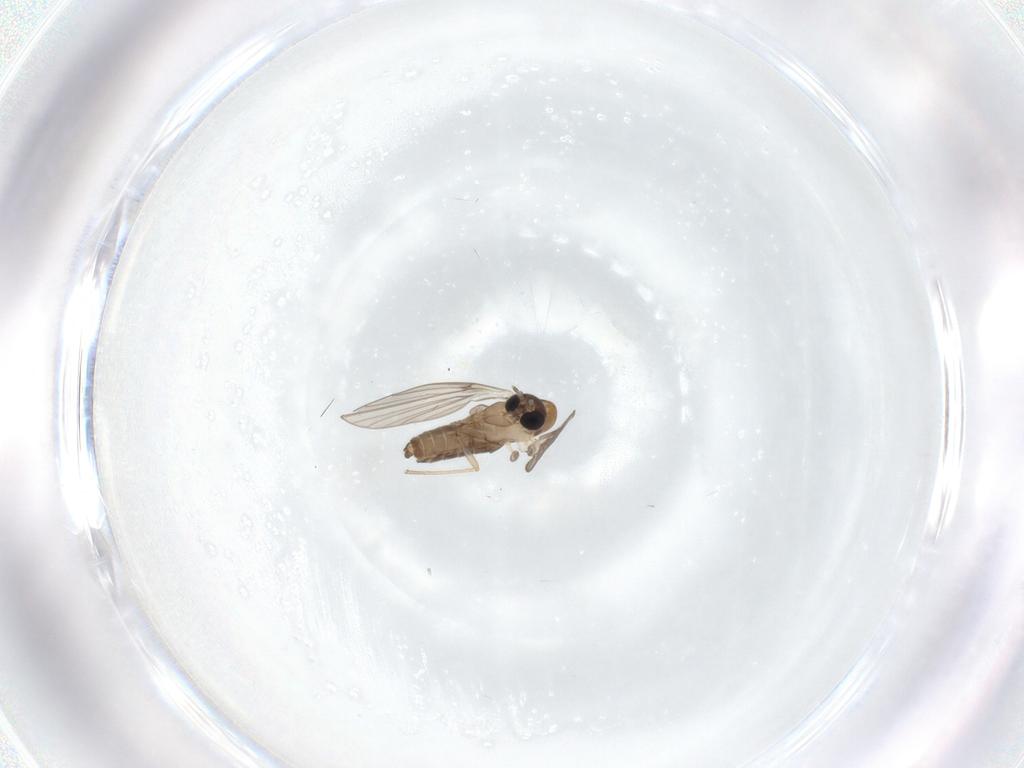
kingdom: Animalia
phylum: Arthropoda
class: Insecta
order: Diptera
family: Psychodidae
